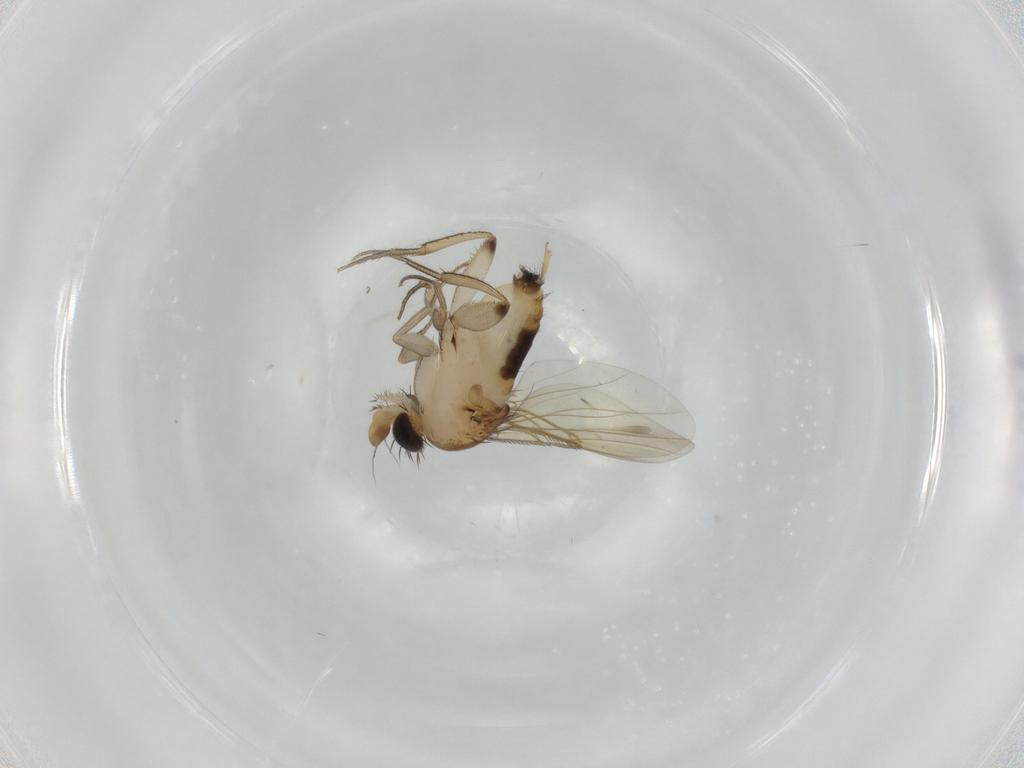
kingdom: Animalia
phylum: Arthropoda
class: Insecta
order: Diptera
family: Phoridae
